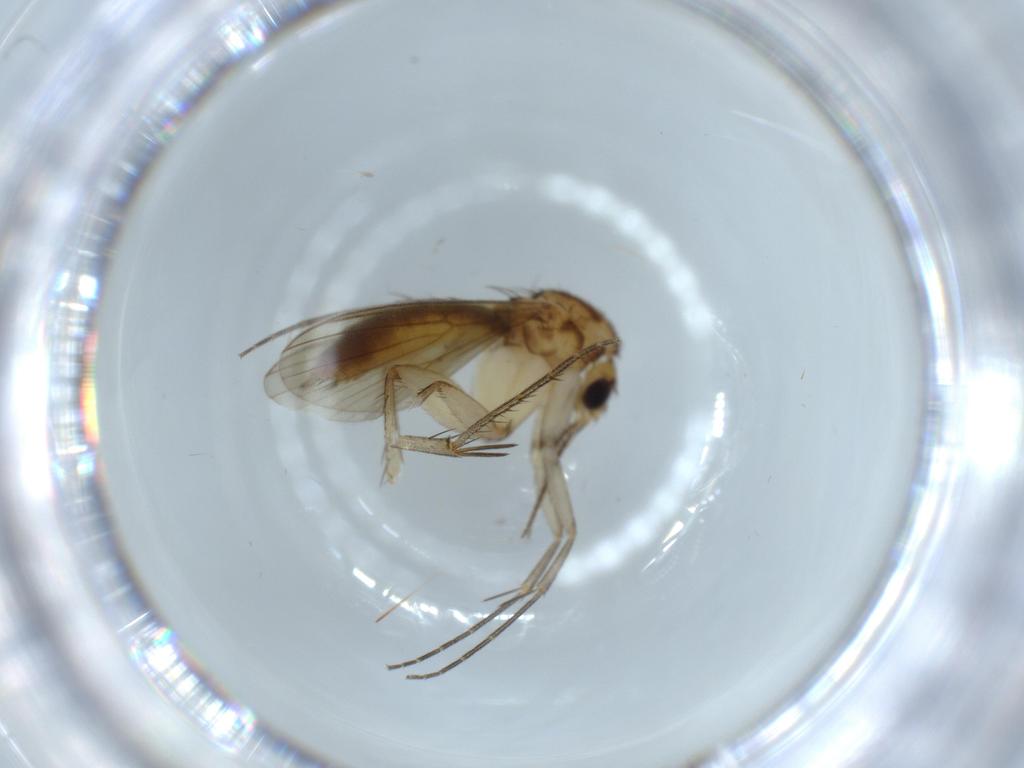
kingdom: Animalia
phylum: Arthropoda
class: Insecta
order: Diptera
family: Mycetophilidae
